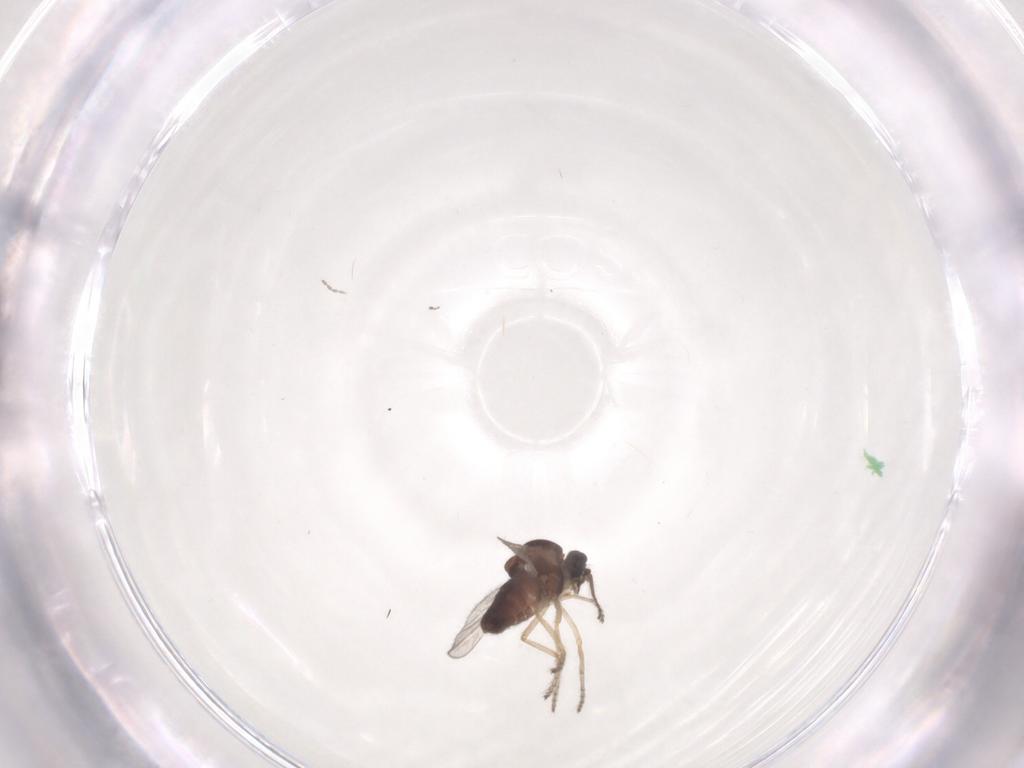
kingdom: Animalia
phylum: Arthropoda
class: Insecta
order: Diptera
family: Ceratopogonidae
